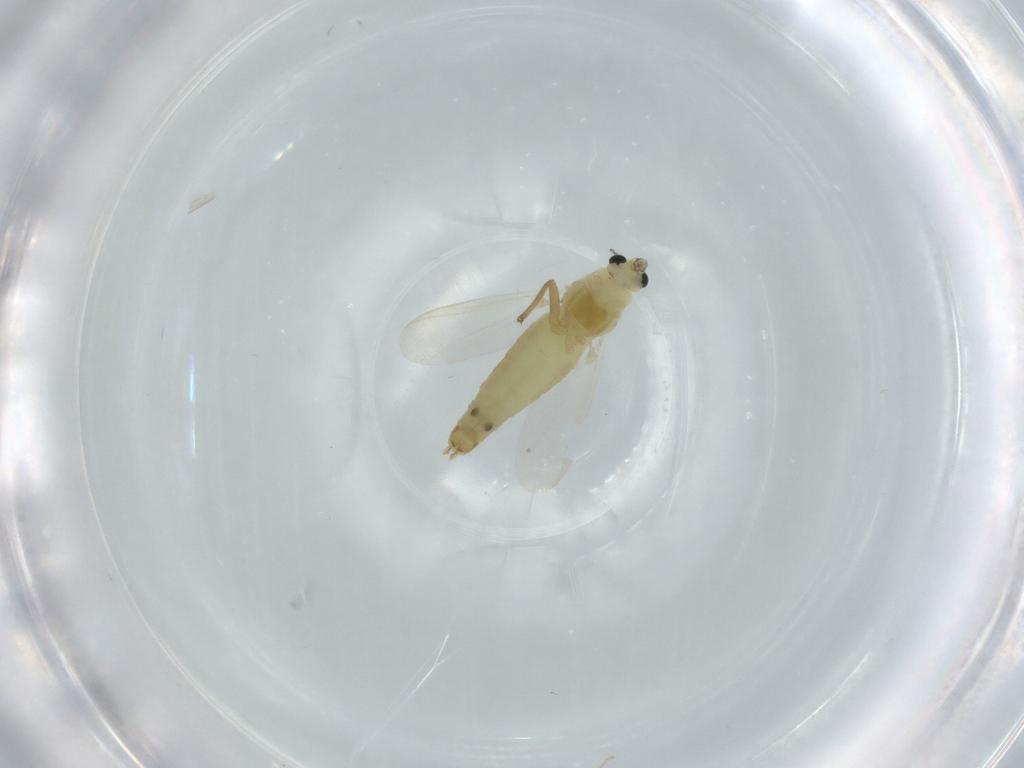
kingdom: Animalia
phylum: Arthropoda
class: Insecta
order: Diptera
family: Chironomidae
